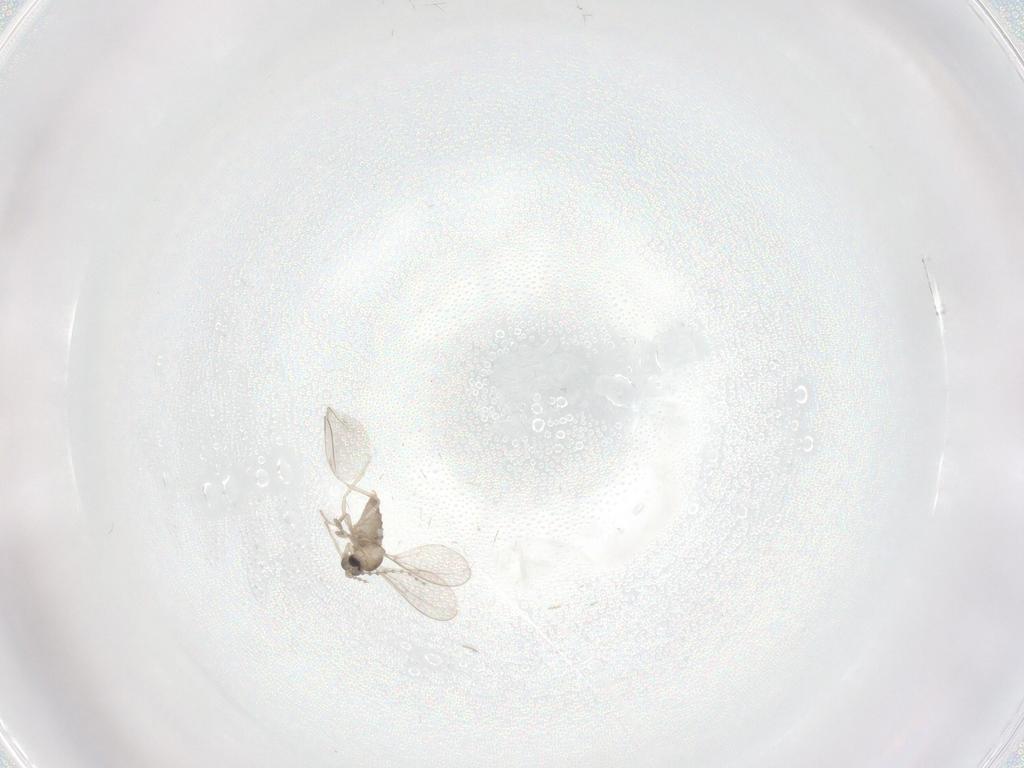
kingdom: Animalia
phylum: Arthropoda
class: Insecta
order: Diptera
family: Cecidomyiidae
